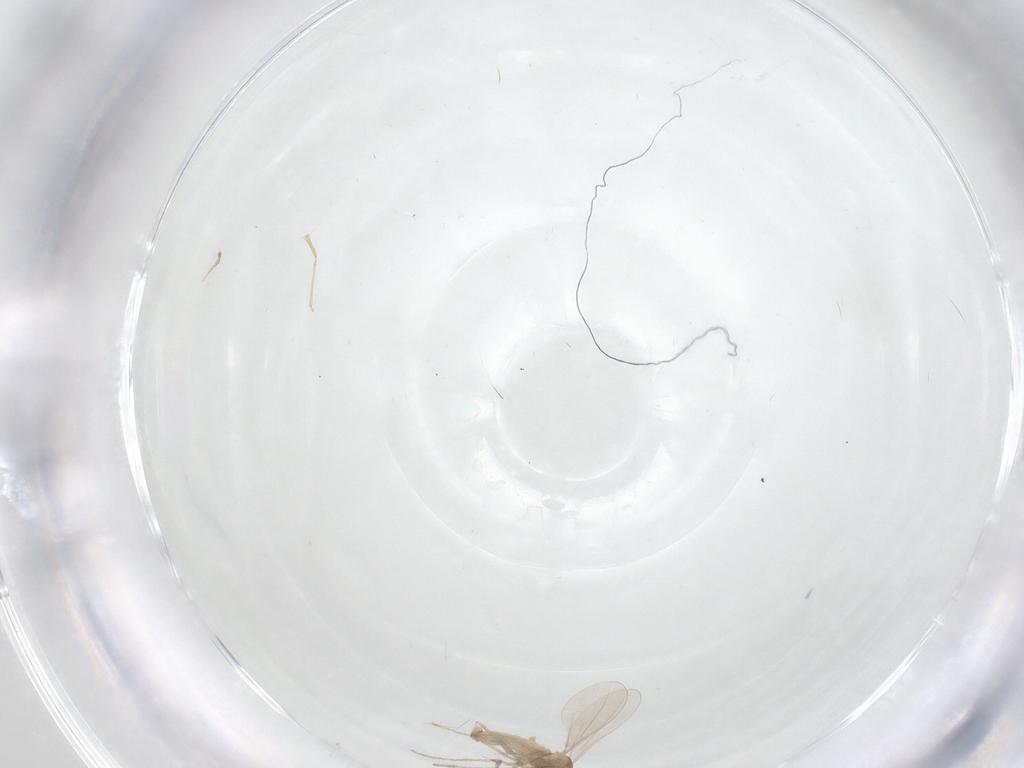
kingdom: Animalia
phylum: Arthropoda
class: Insecta
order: Diptera
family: Cecidomyiidae
